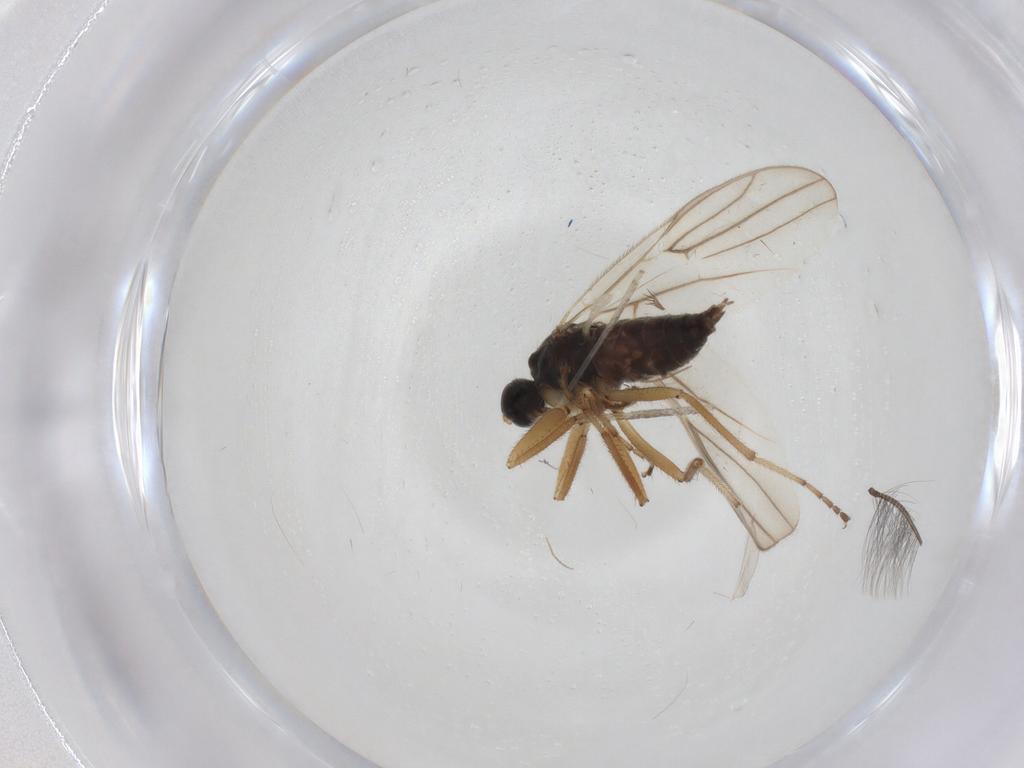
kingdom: Animalia
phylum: Arthropoda
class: Insecta
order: Diptera
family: Hybotidae
